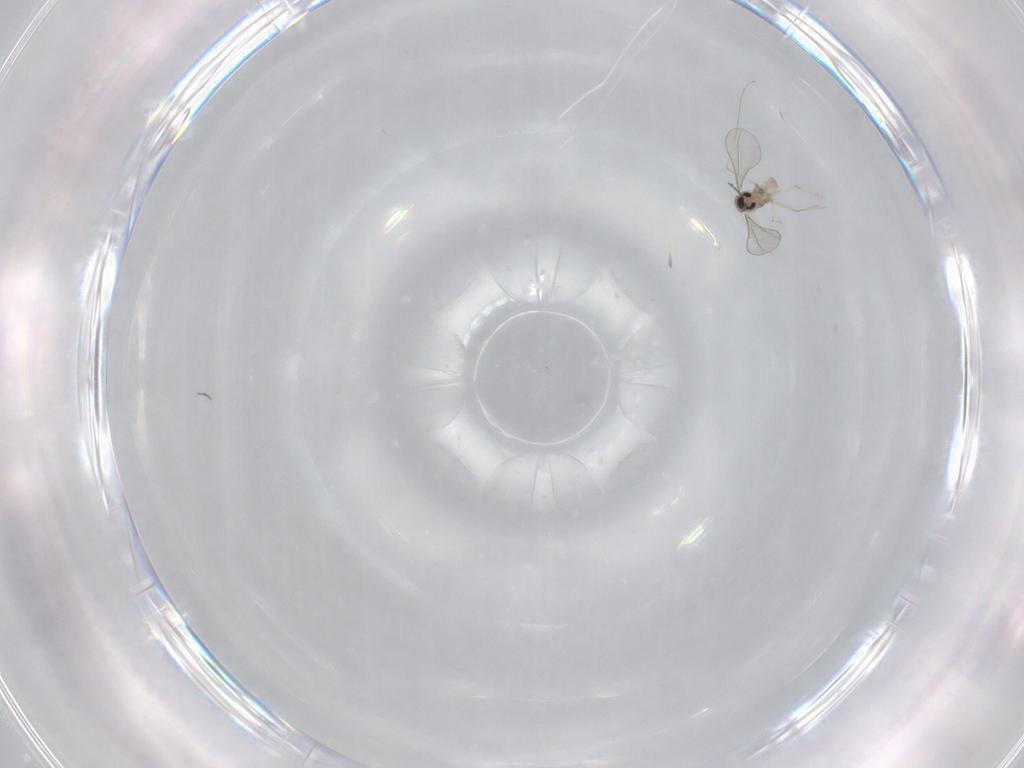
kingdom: Animalia
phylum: Arthropoda
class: Insecta
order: Diptera
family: Cecidomyiidae
